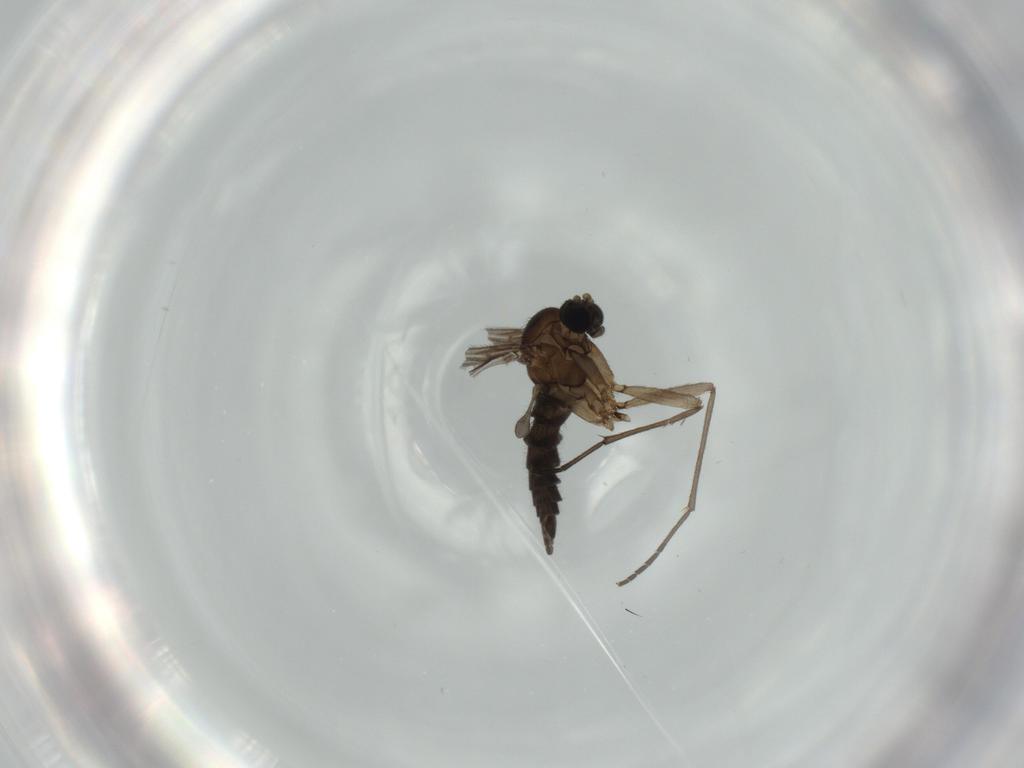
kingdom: Animalia
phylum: Arthropoda
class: Insecta
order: Diptera
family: Sciaridae
